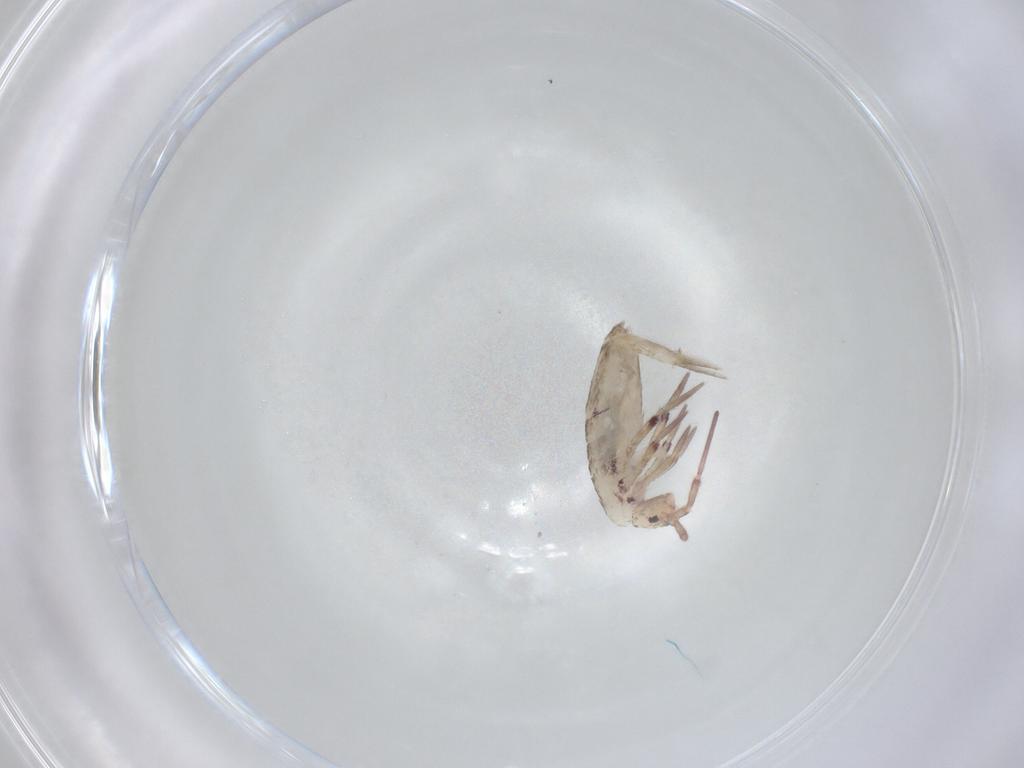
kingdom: Animalia
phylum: Arthropoda
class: Collembola
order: Entomobryomorpha
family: Entomobryidae
